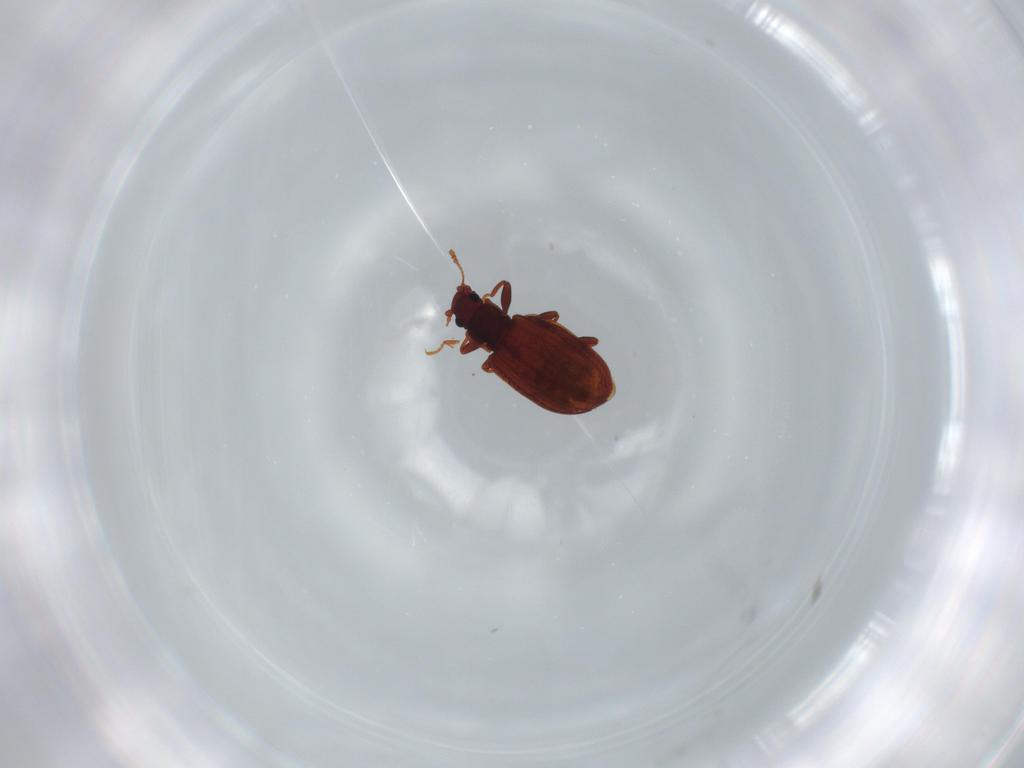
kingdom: Animalia
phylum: Arthropoda
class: Insecta
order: Coleoptera
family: Latridiidae
